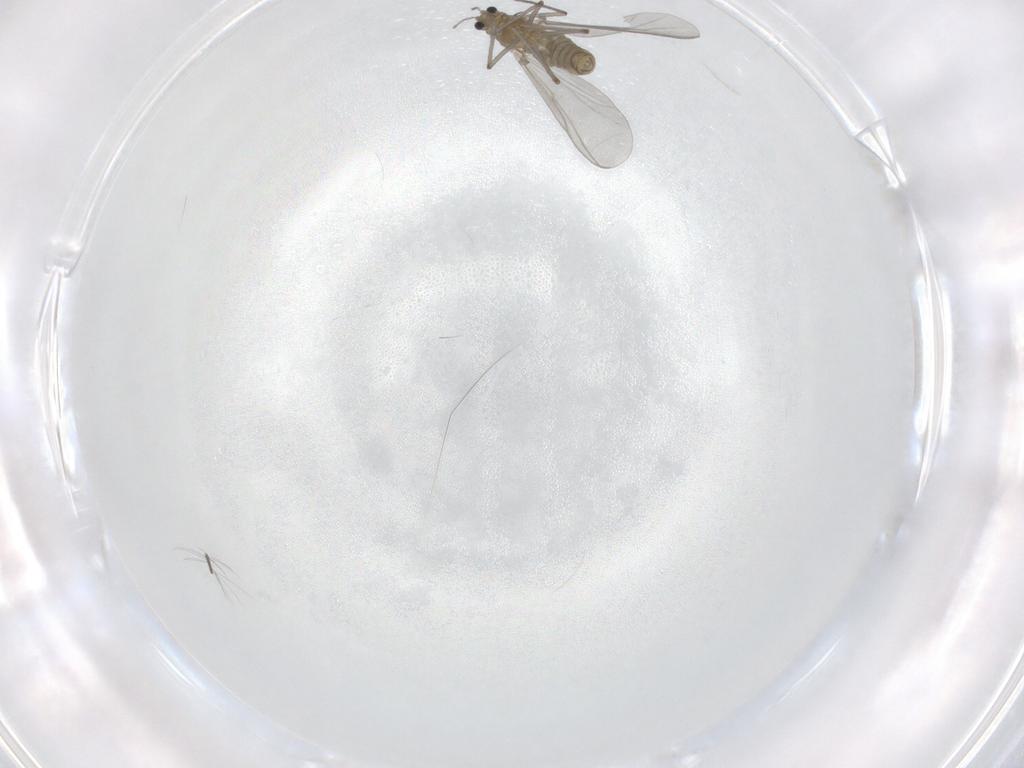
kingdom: Animalia
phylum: Arthropoda
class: Insecta
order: Diptera
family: Chironomidae
